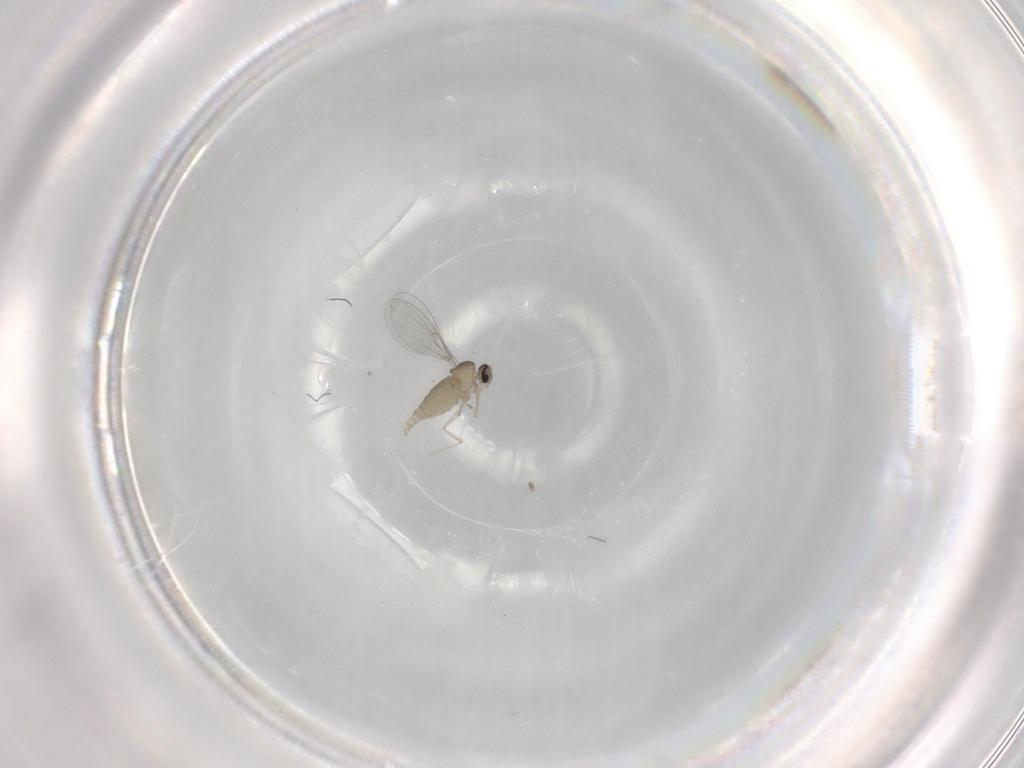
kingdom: Animalia
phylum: Arthropoda
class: Insecta
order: Diptera
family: Cecidomyiidae
